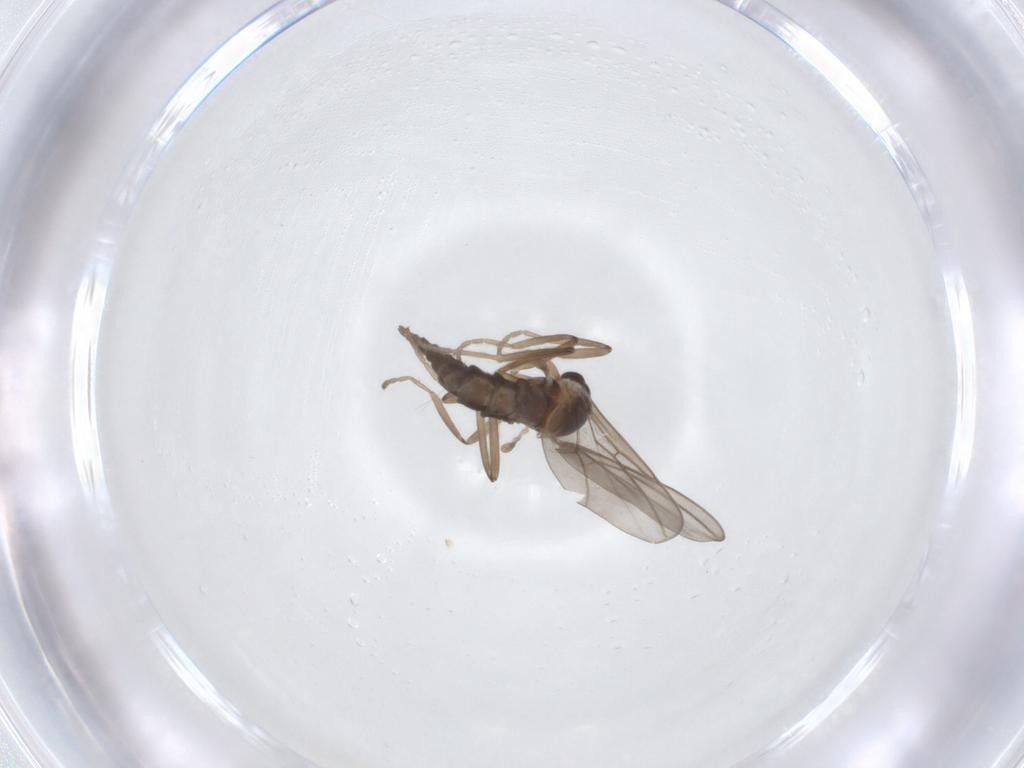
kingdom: Animalia
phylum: Arthropoda
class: Insecta
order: Diptera
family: Cecidomyiidae
